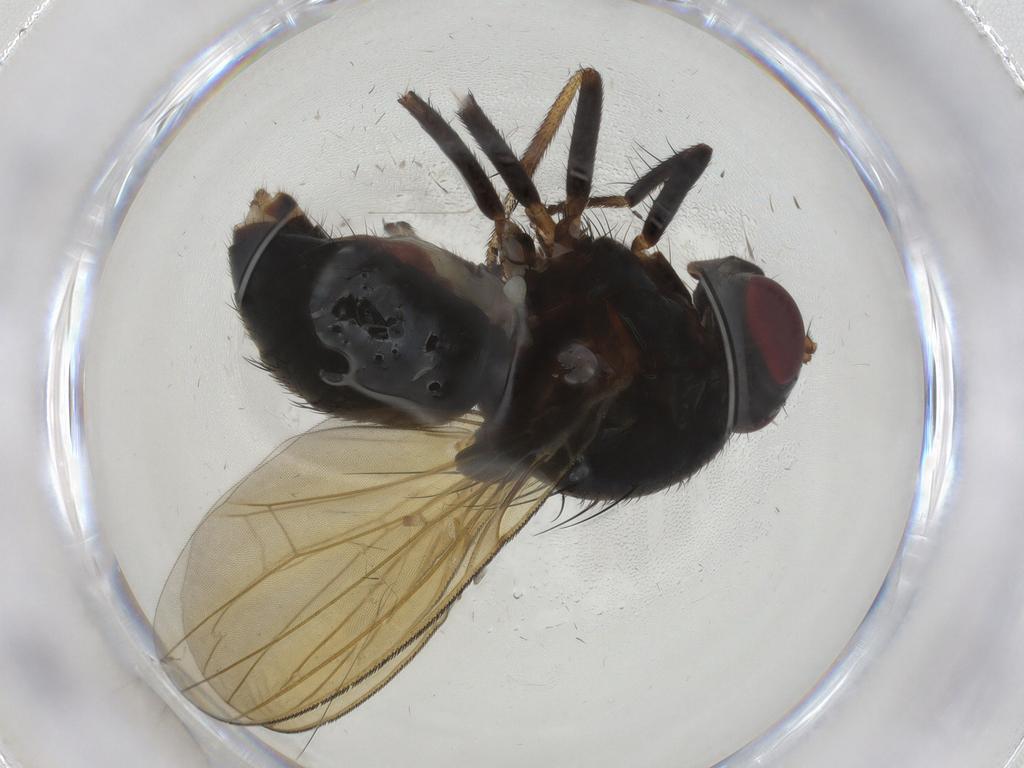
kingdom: Animalia
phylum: Arthropoda
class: Insecta
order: Diptera
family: Lauxaniidae
